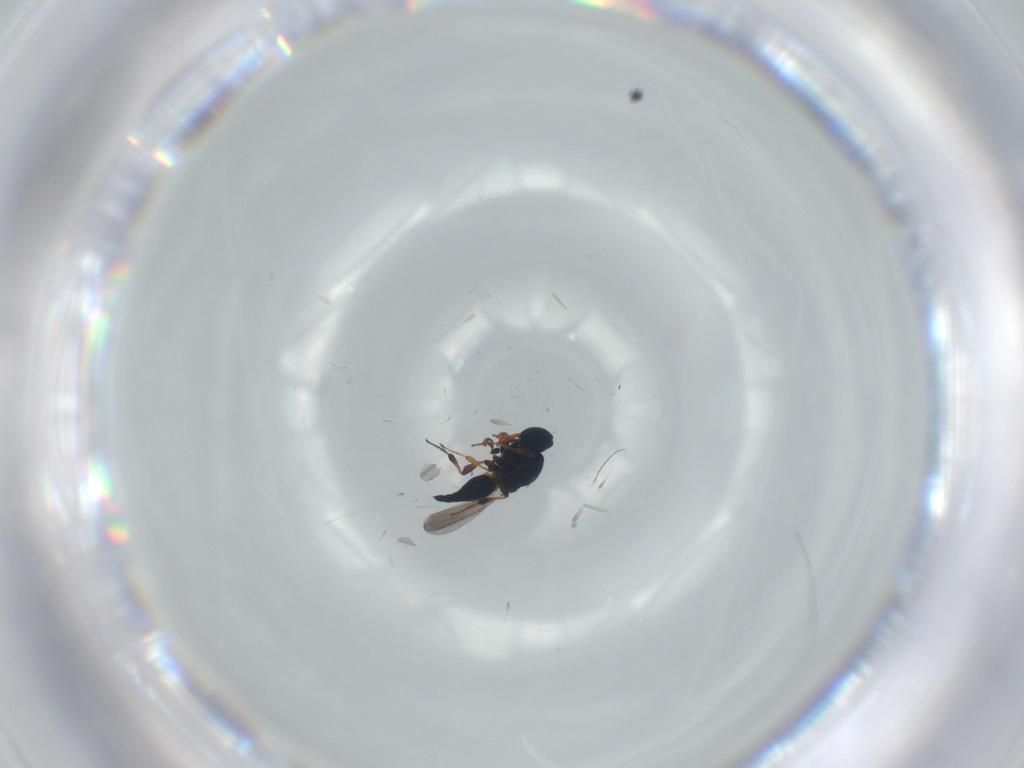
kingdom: Animalia
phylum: Arthropoda
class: Insecta
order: Hymenoptera
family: Platygastridae
